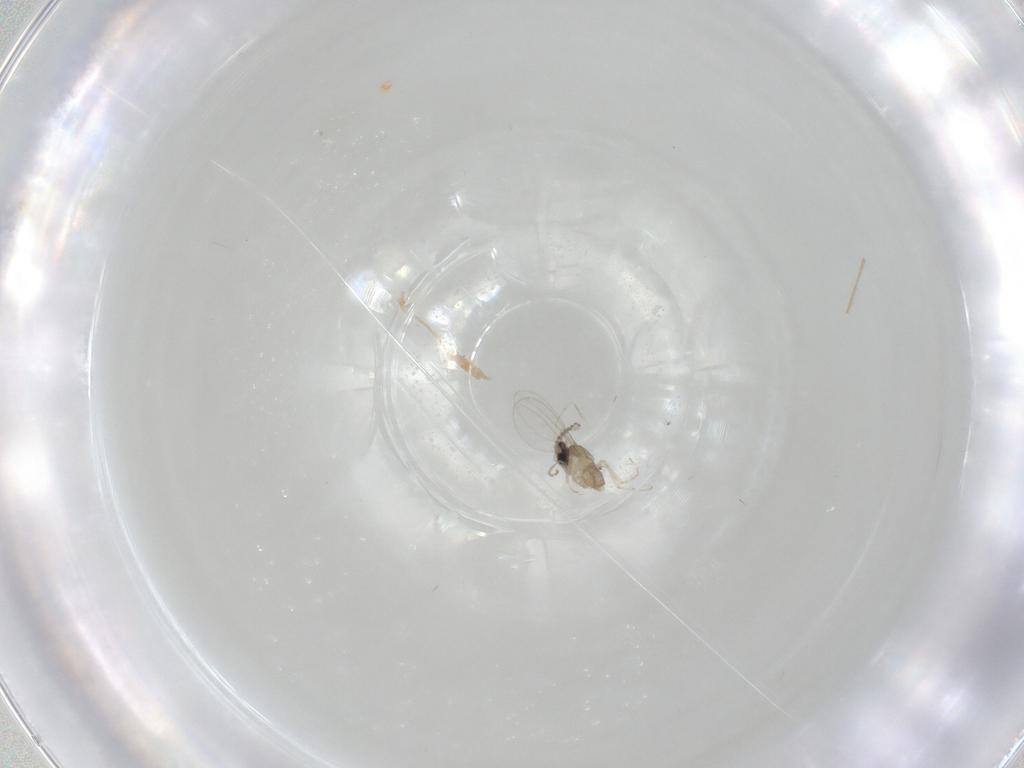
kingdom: Animalia
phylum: Arthropoda
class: Insecta
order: Diptera
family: Cecidomyiidae
